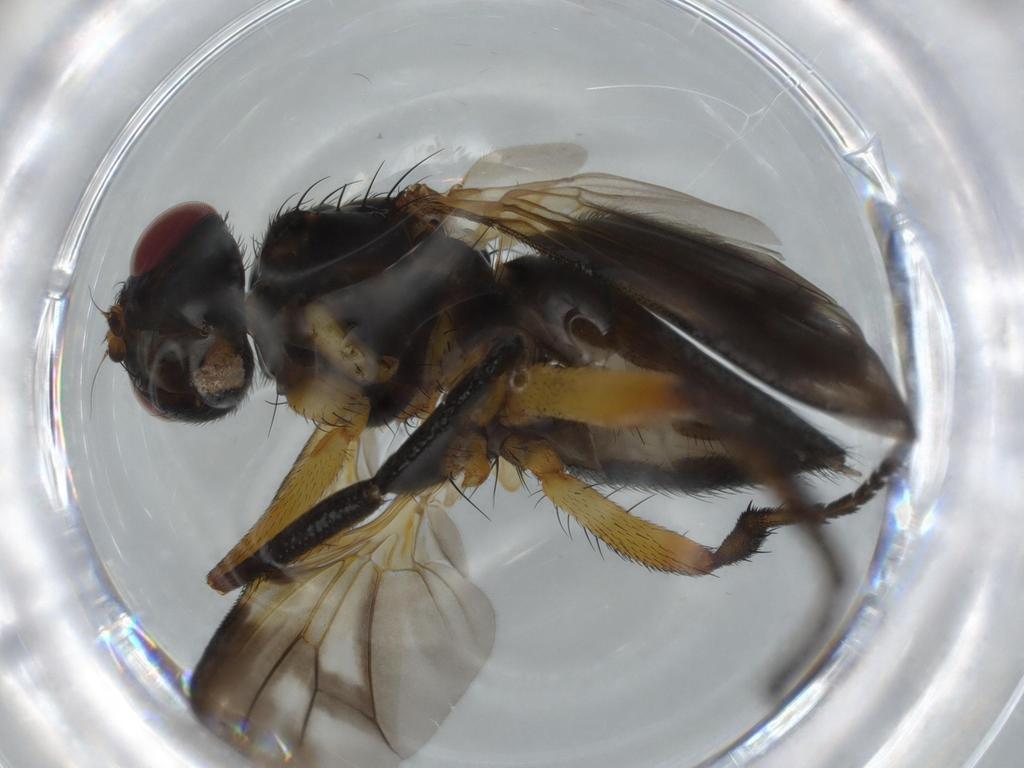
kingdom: Animalia
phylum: Arthropoda
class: Insecta
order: Diptera
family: Calliphoridae
